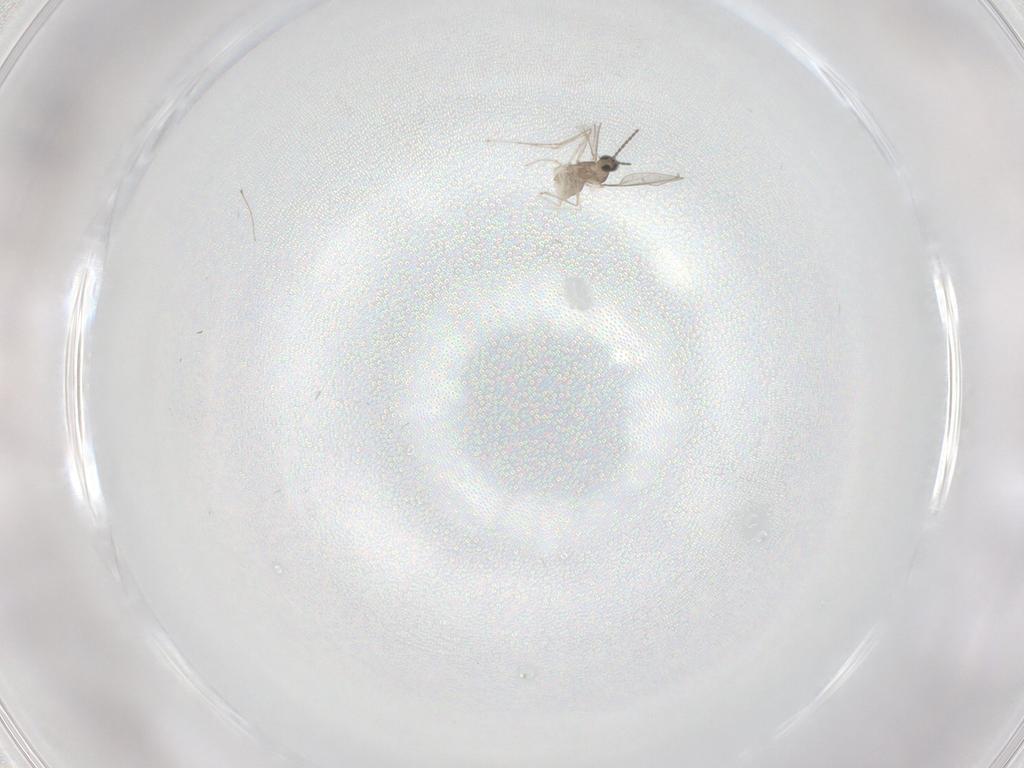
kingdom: Animalia
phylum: Arthropoda
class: Insecta
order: Diptera
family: Cecidomyiidae
